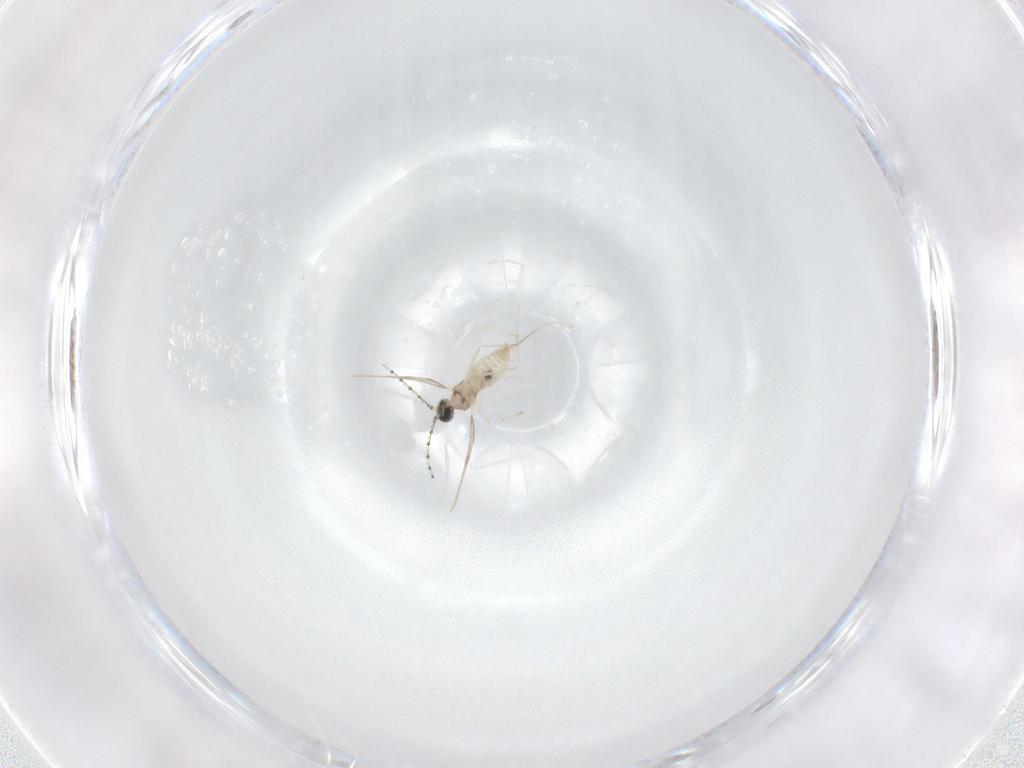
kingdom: Animalia
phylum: Arthropoda
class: Insecta
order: Diptera
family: Cecidomyiidae
